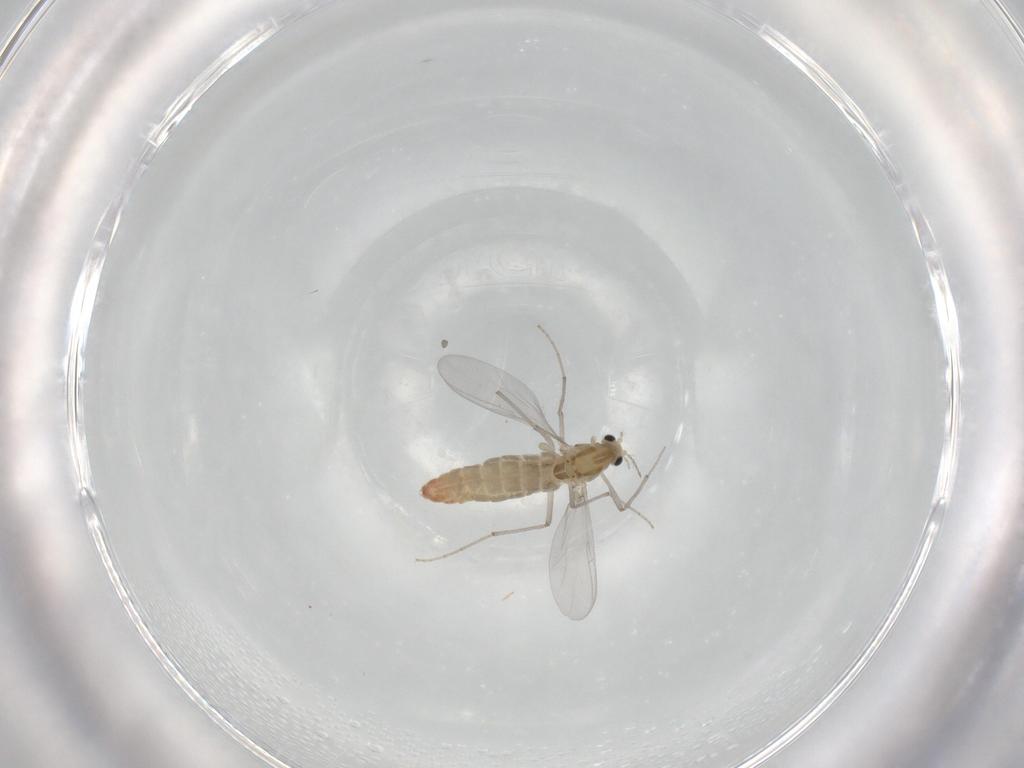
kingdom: Animalia
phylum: Arthropoda
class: Insecta
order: Diptera
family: Chironomidae
